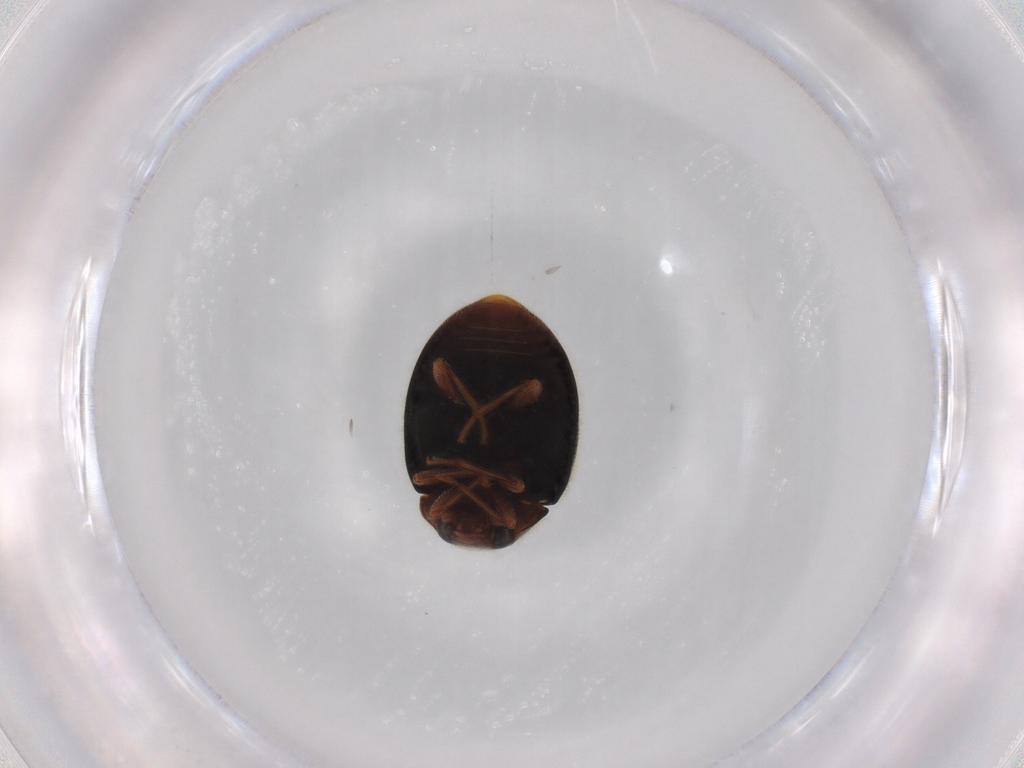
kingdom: Animalia
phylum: Arthropoda
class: Insecta
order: Coleoptera
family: Coccinellidae
